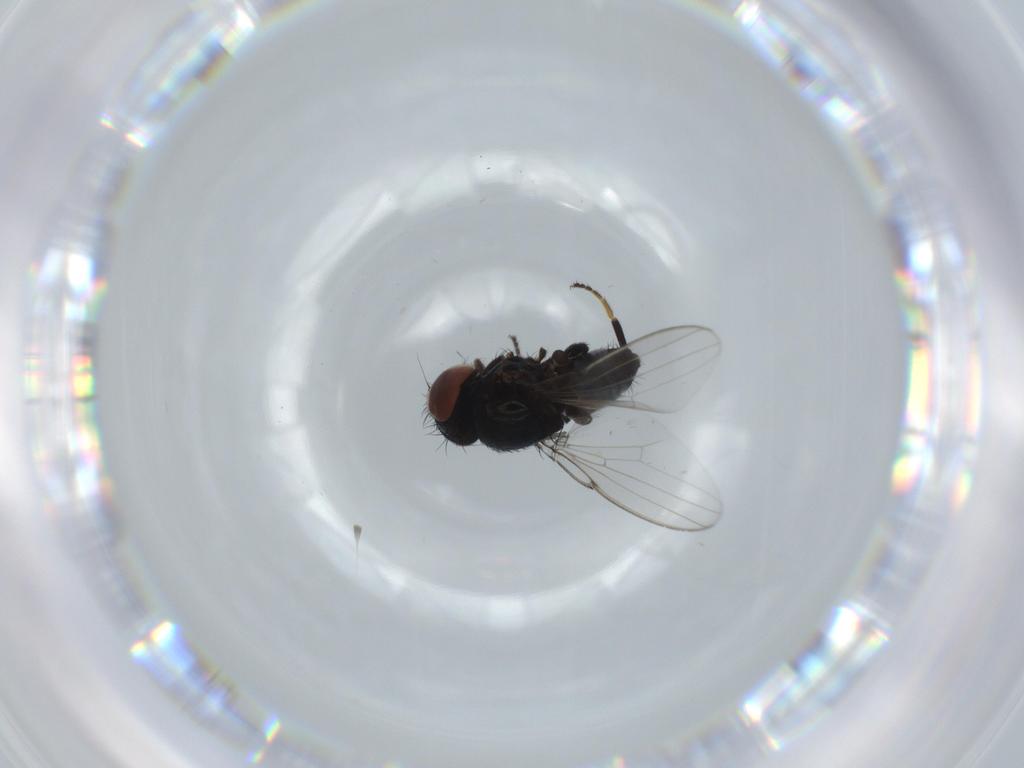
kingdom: Animalia
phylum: Arthropoda
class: Insecta
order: Diptera
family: Milichiidae
